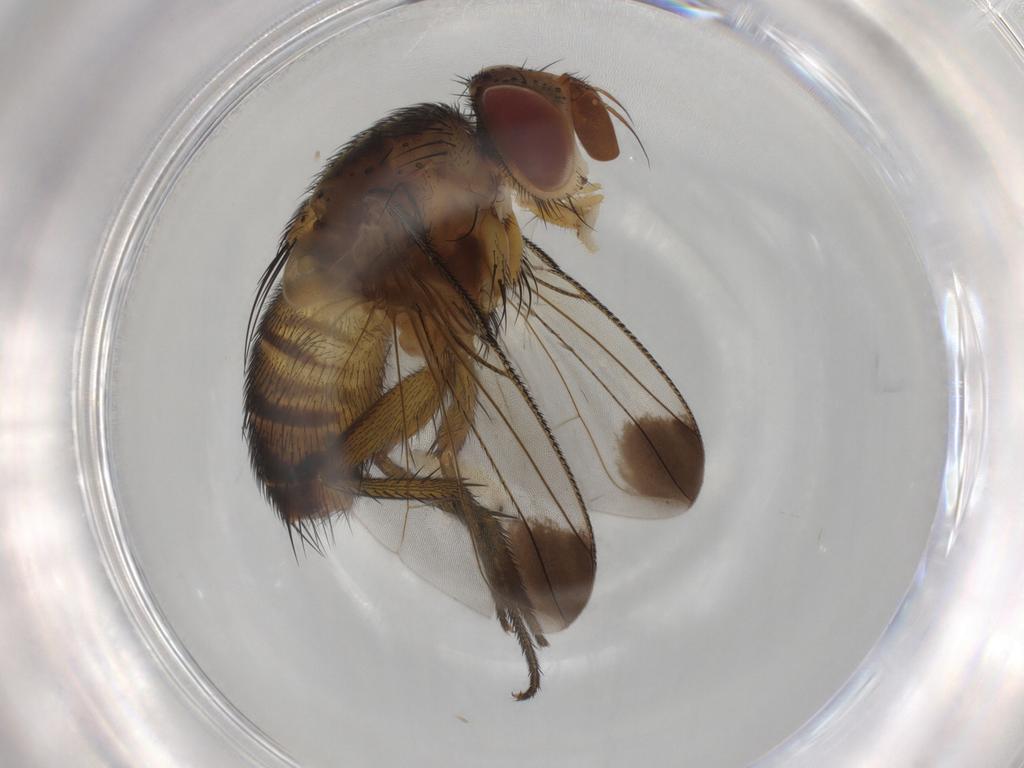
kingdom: Animalia
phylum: Arthropoda
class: Insecta
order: Diptera
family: Tachinidae
